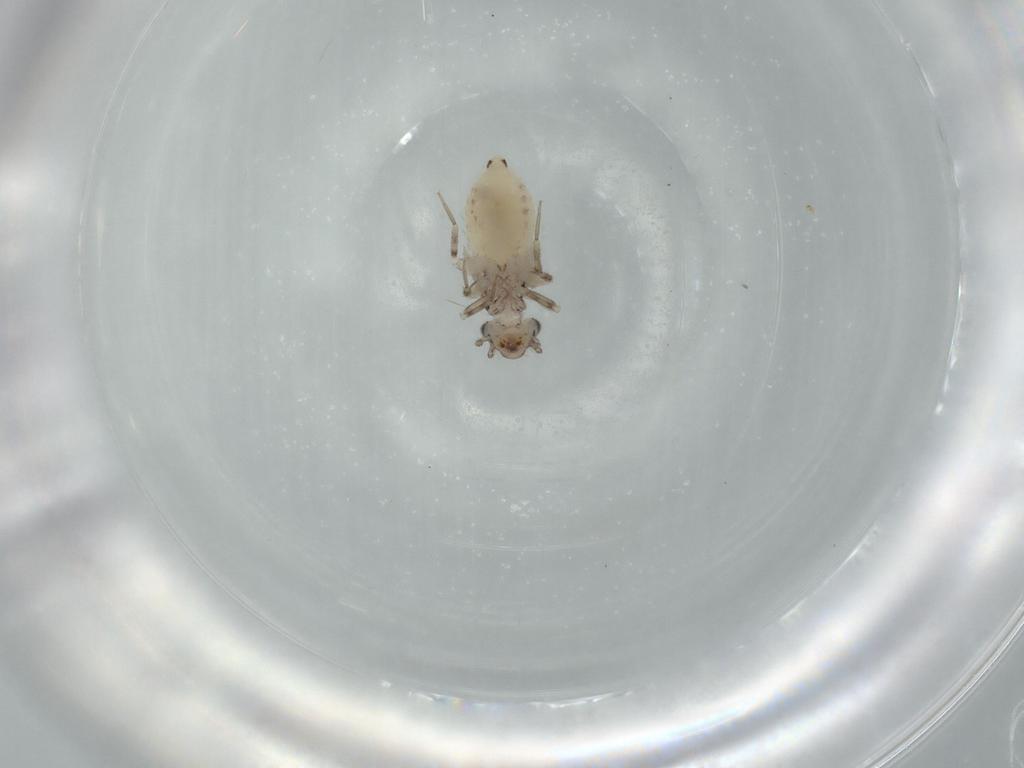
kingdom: Animalia
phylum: Arthropoda
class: Insecta
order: Psocodea
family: Lepidopsocidae
